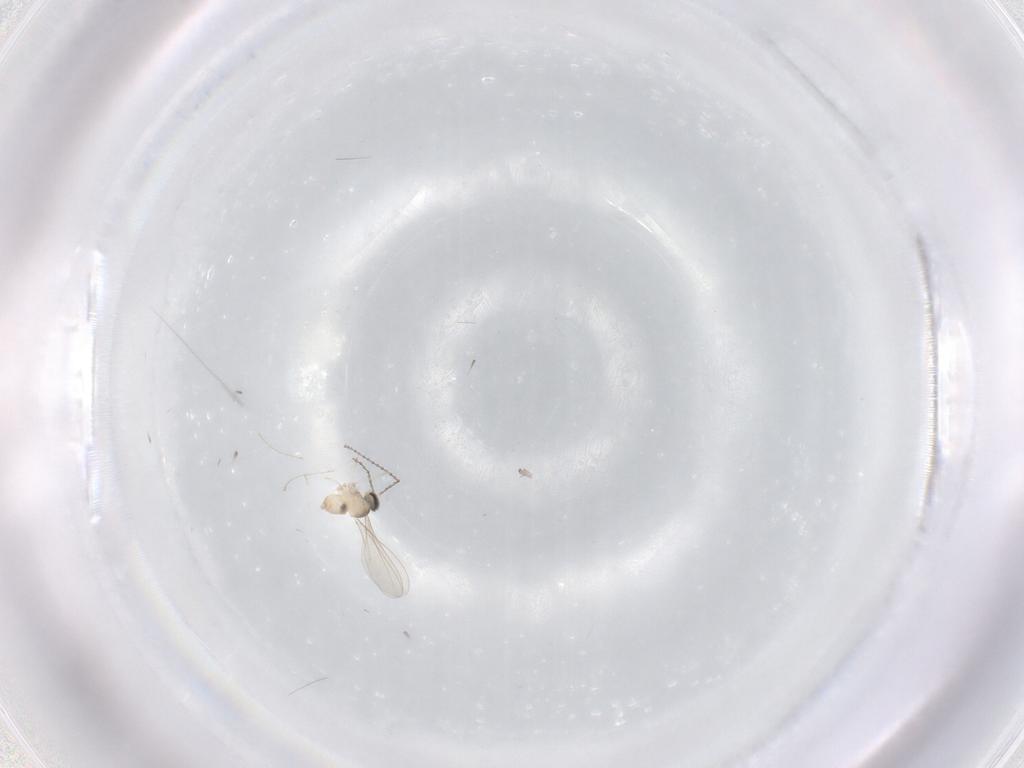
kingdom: Animalia
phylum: Arthropoda
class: Insecta
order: Diptera
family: Cecidomyiidae
